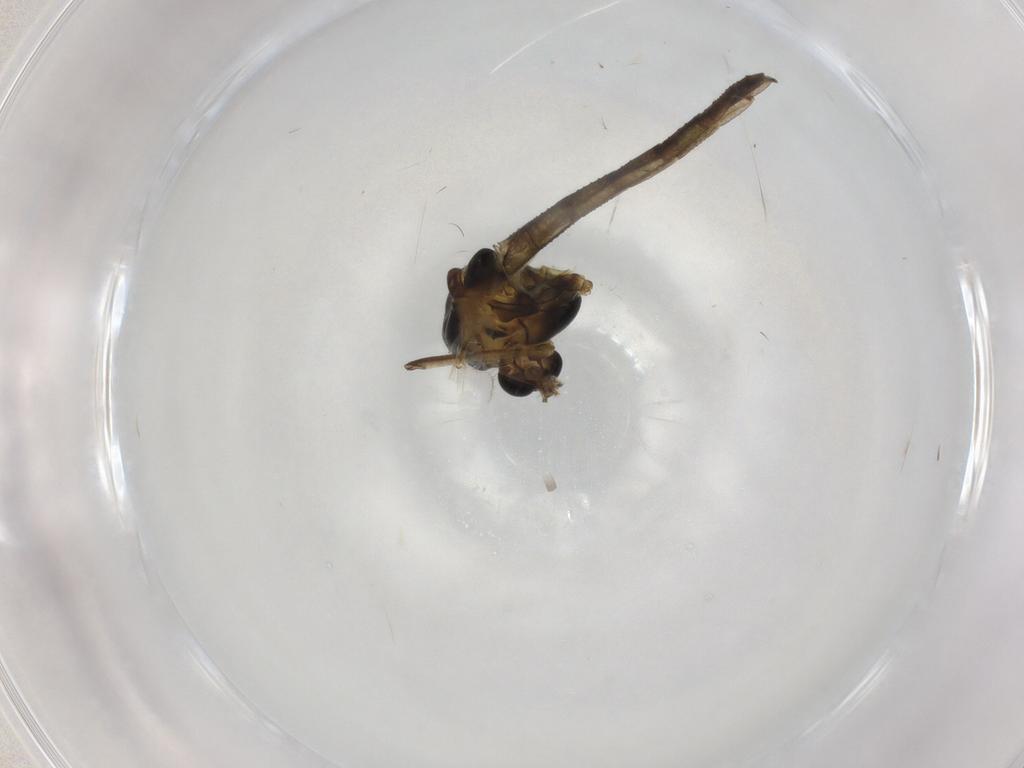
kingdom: Animalia
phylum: Arthropoda
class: Insecta
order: Diptera
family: Chironomidae
